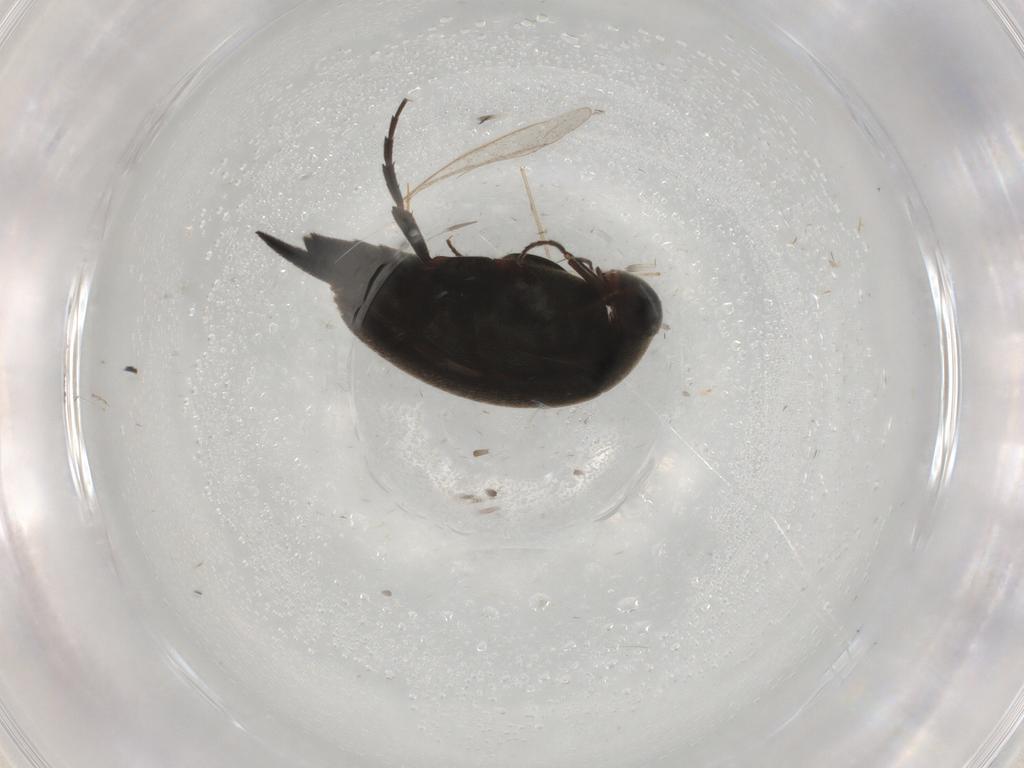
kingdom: Animalia
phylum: Arthropoda
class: Insecta
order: Coleoptera
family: Mordellidae
